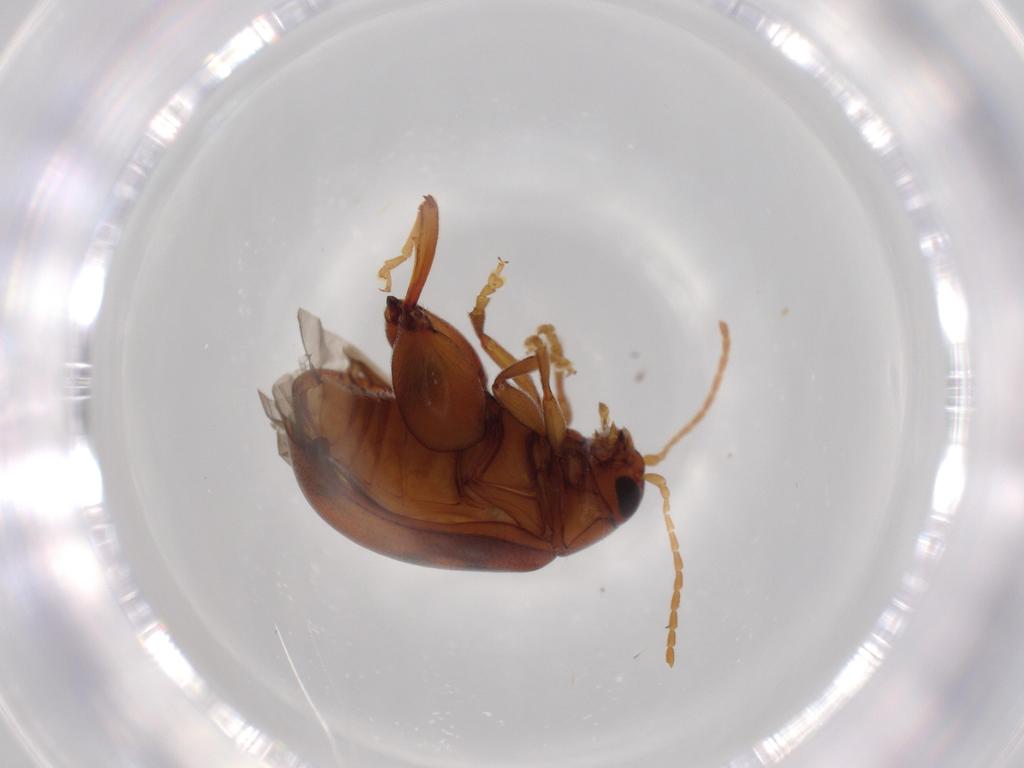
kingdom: Animalia
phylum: Arthropoda
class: Insecta
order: Coleoptera
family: Chrysomelidae
